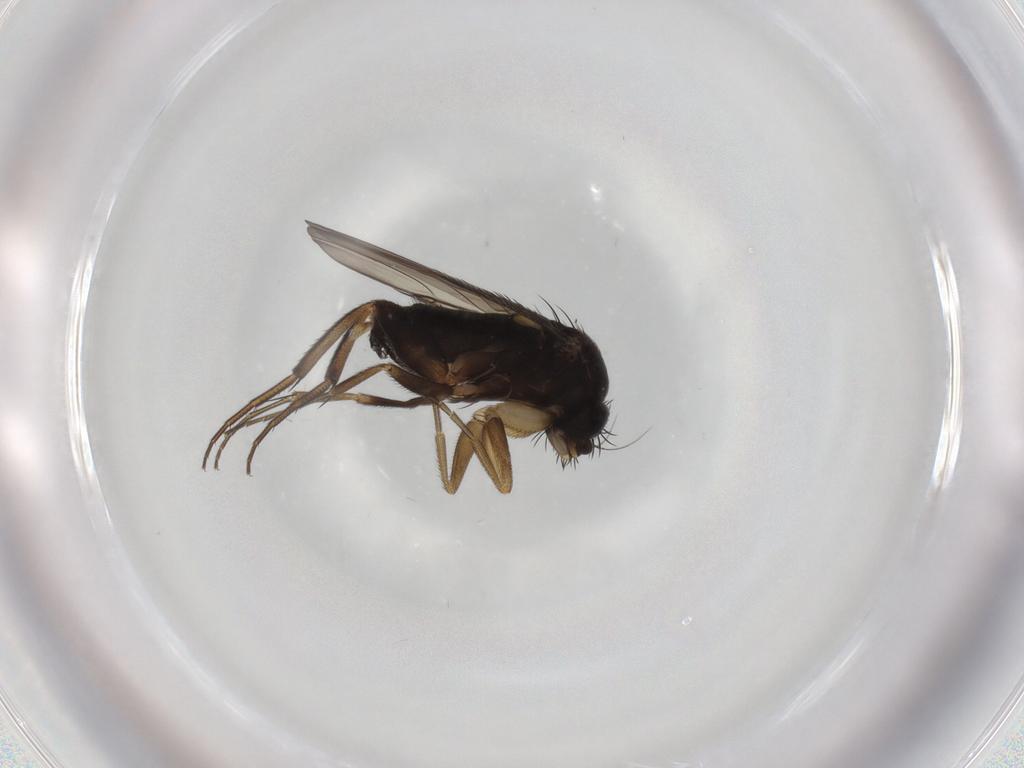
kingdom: Animalia
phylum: Arthropoda
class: Insecta
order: Diptera
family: Phoridae
